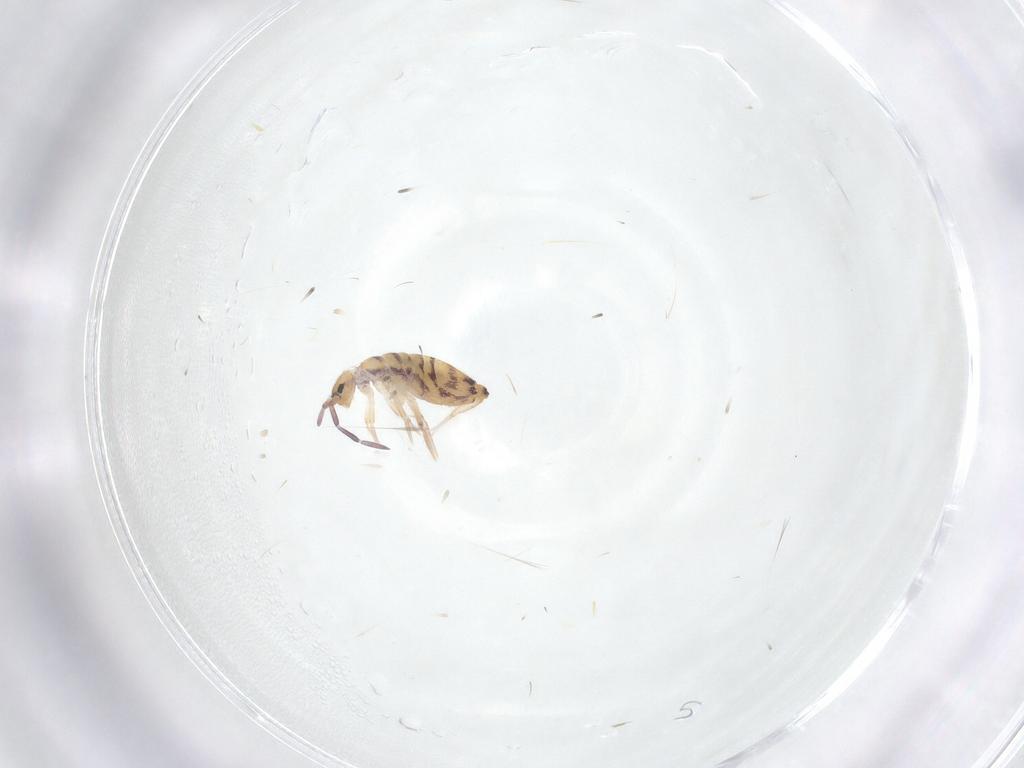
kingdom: Animalia
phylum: Arthropoda
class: Collembola
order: Entomobryomorpha
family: Entomobryidae
